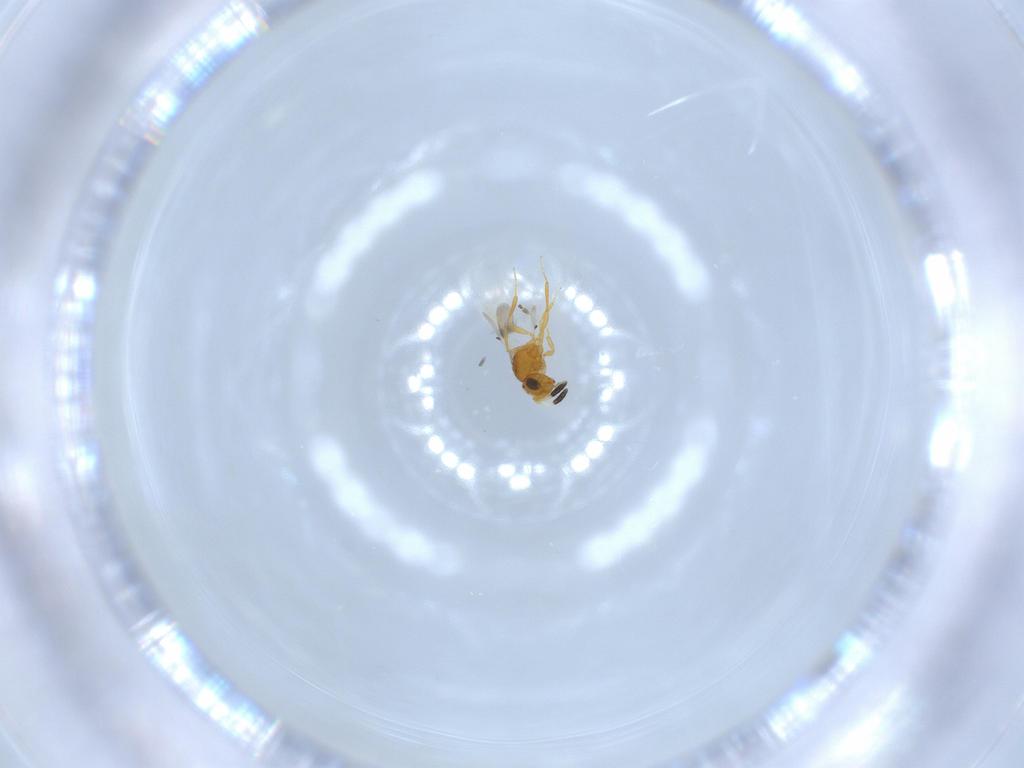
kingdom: Animalia
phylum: Arthropoda
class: Insecta
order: Hymenoptera
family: Scelionidae
